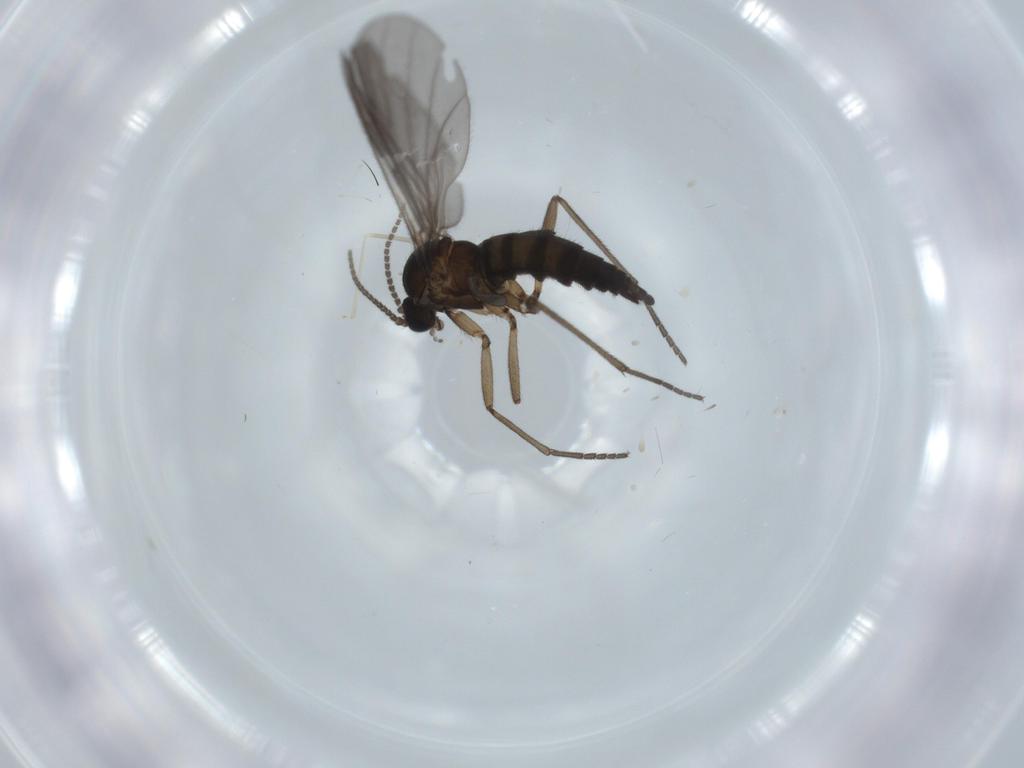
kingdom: Animalia
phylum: Arthropoda
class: Insecta
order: Diptera
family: Sciaridae
